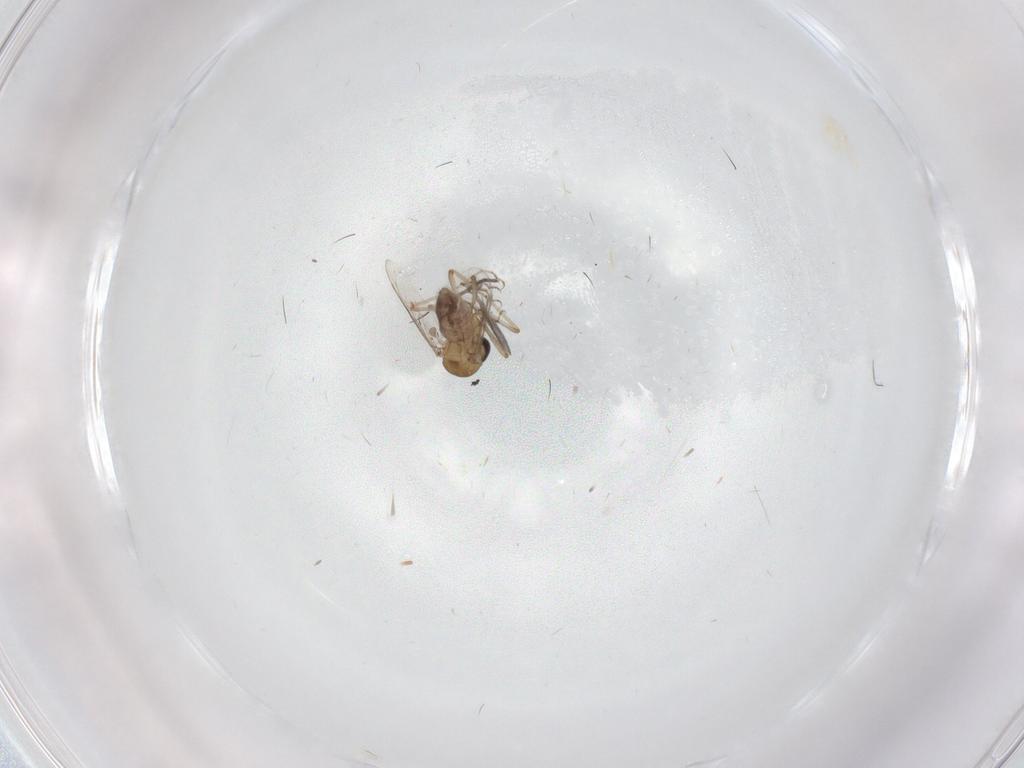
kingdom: Animalia
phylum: Arthropoda
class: Insecta
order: Diptera
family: Ceratopogonidae
